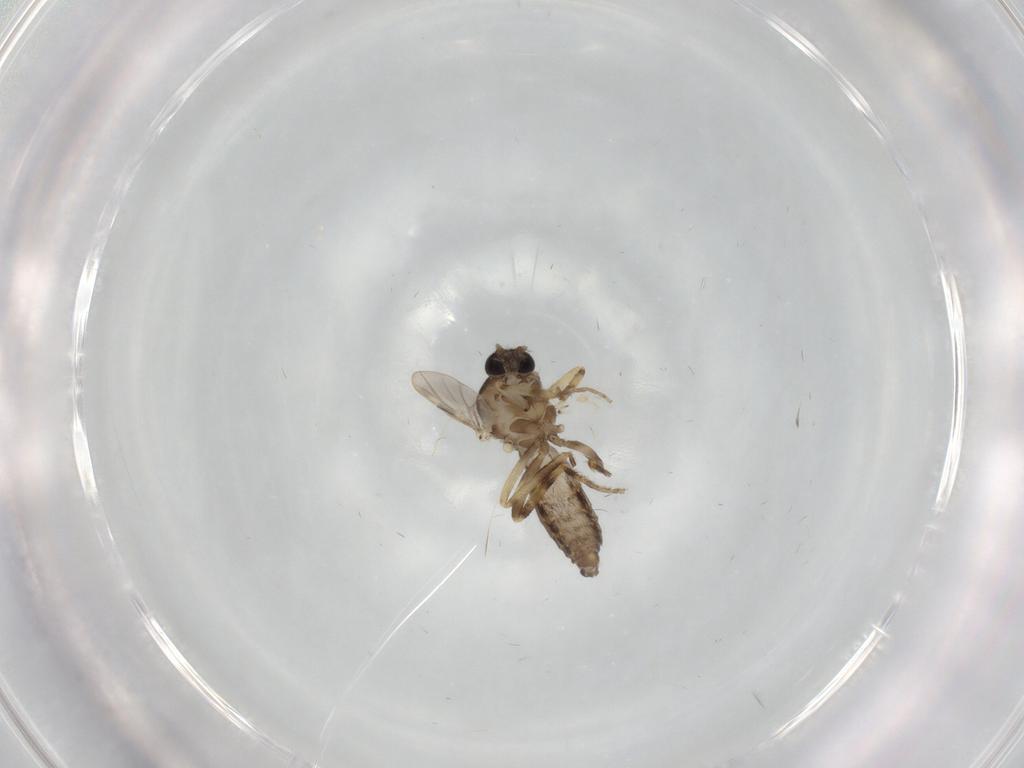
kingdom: Animalia
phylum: Arthropoda
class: Insecta
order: Diptera
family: Ceratopogonidae
